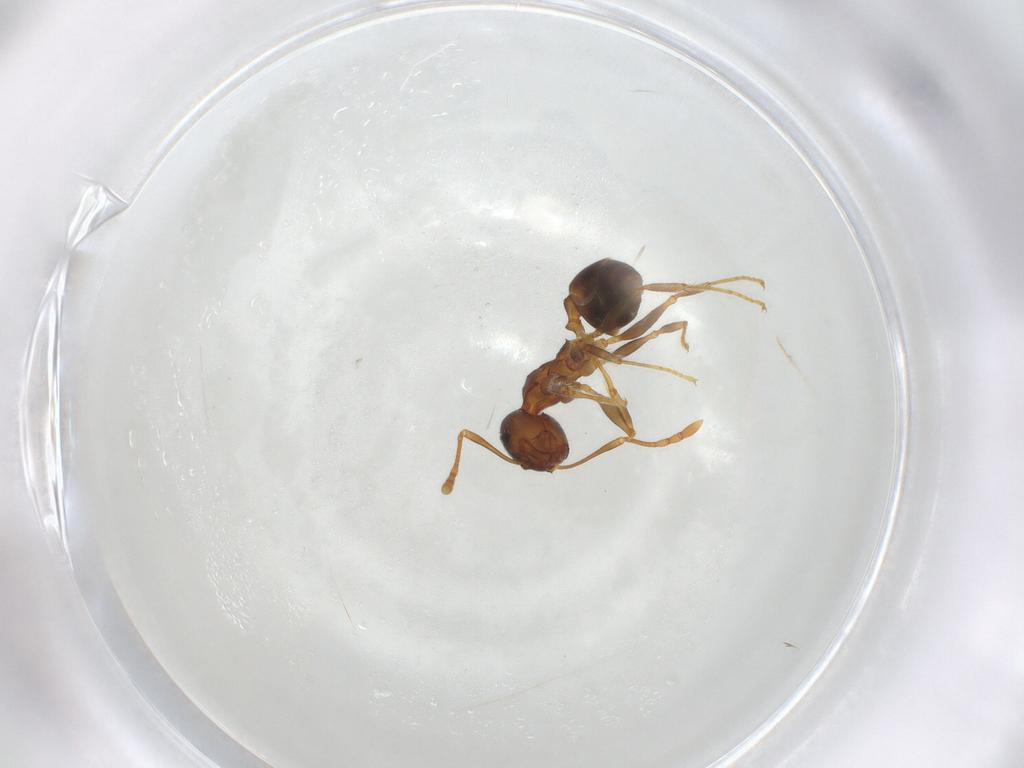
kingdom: Animalia
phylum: Arthropoda
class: Insecta
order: Hymenoptera
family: Formicidae
